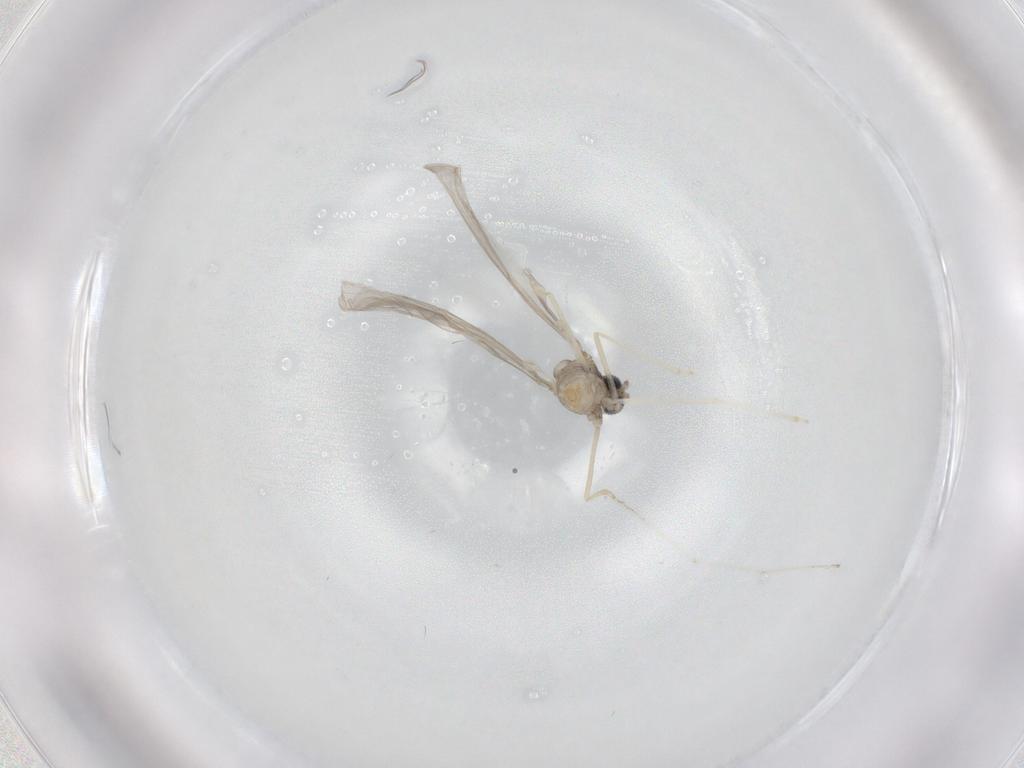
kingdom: Animalia
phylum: Arthropoda
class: Insecta
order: Diptera
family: Cecidomyiidae
